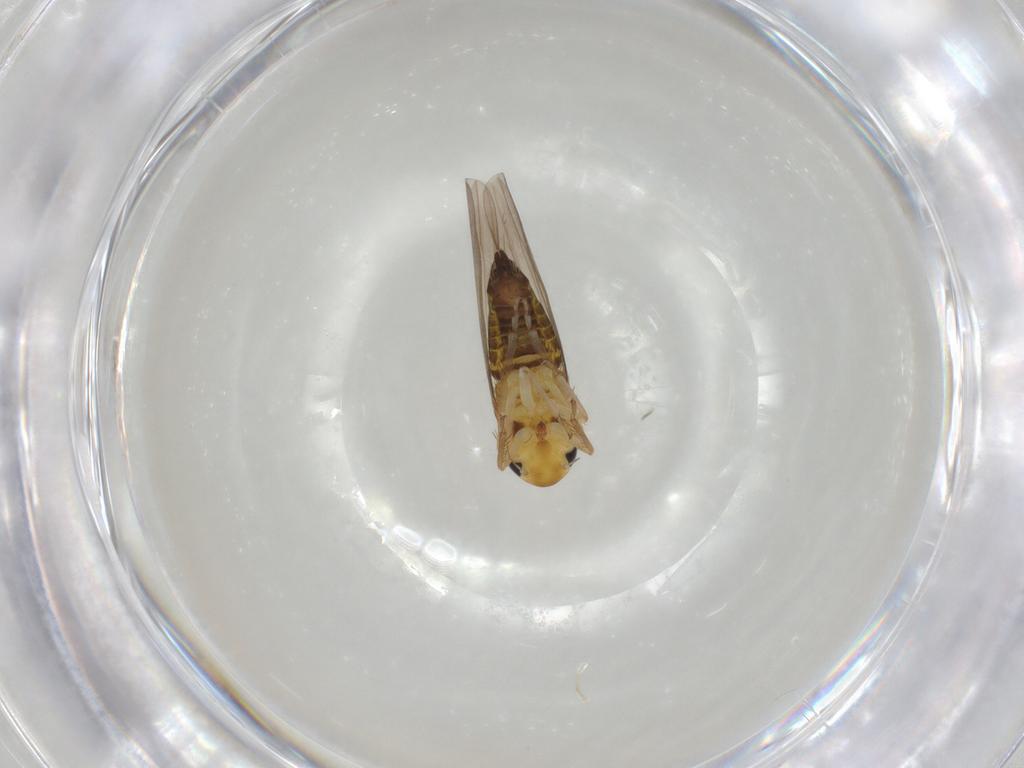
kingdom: Animalia
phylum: Arthropoda
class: Insecta
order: Hemiptera
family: Cicadellidae
